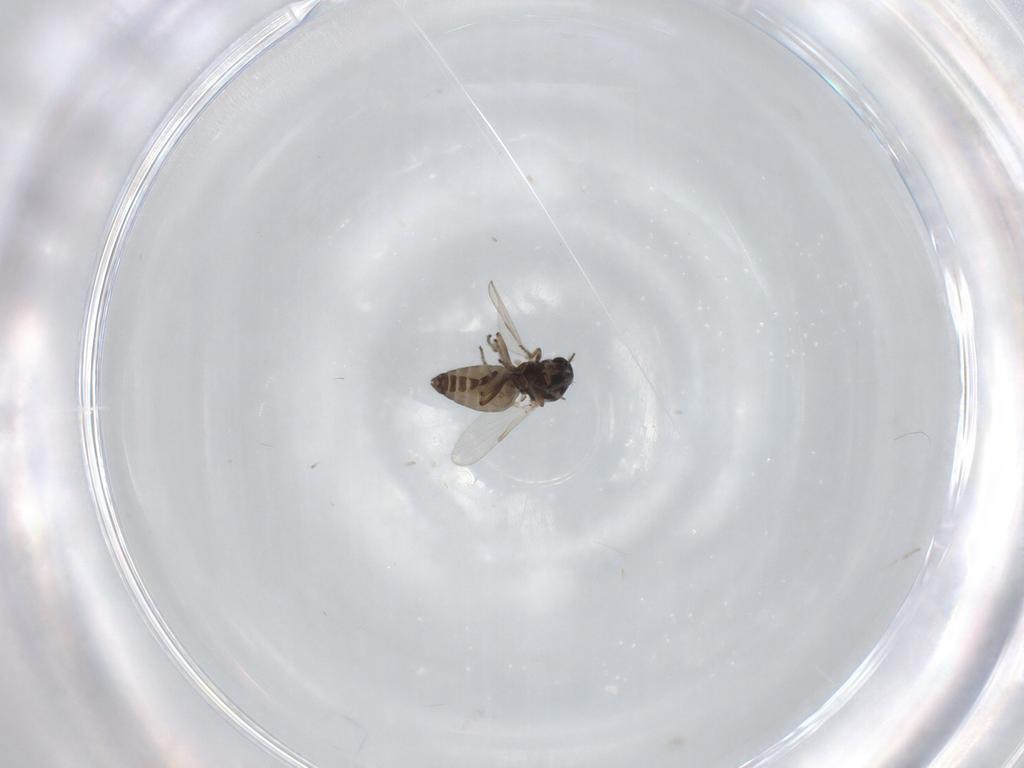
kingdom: Animalia
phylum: Arthropoda
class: Insecta
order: Diptera
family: Ceratopogonidae
